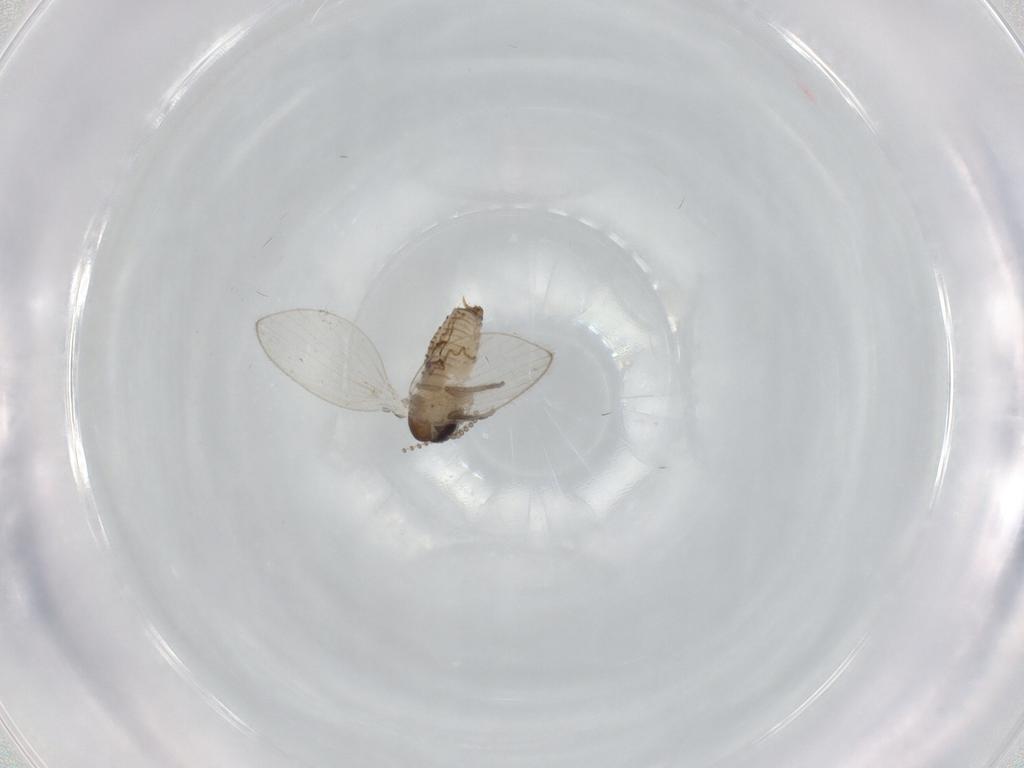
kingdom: Animalia
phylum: Arthropoda
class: Insecta
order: Diptera
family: Psychodidae
